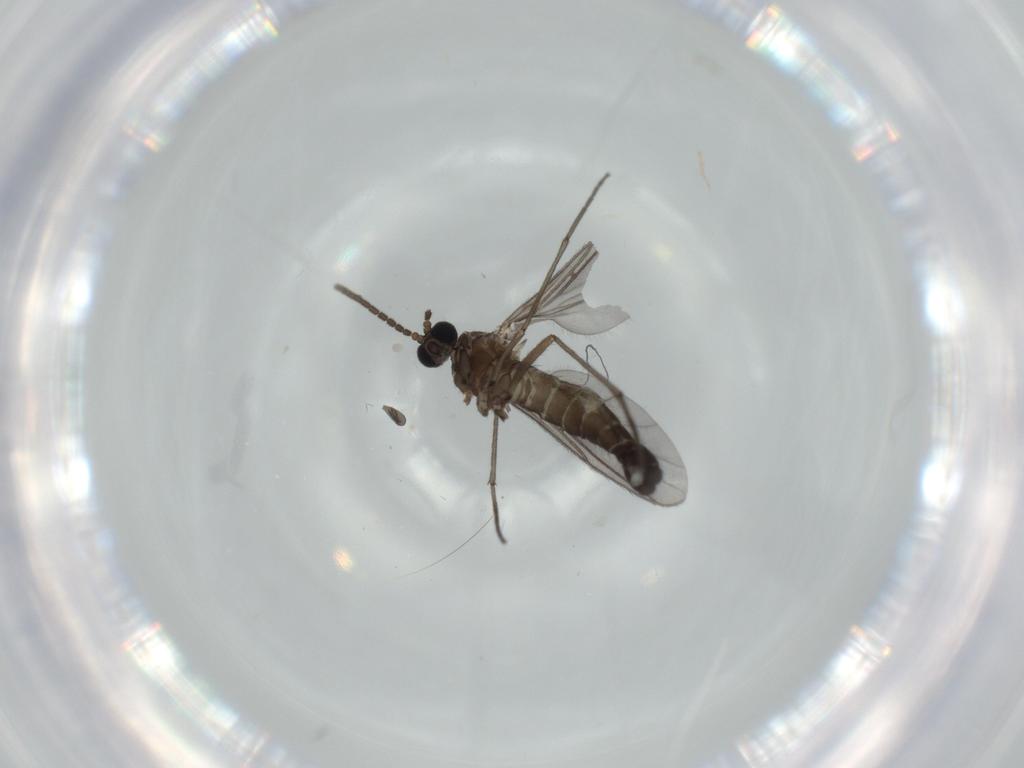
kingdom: Animalia
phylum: Arthropoda
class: Insecta
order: Diptera
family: Sciaridae
